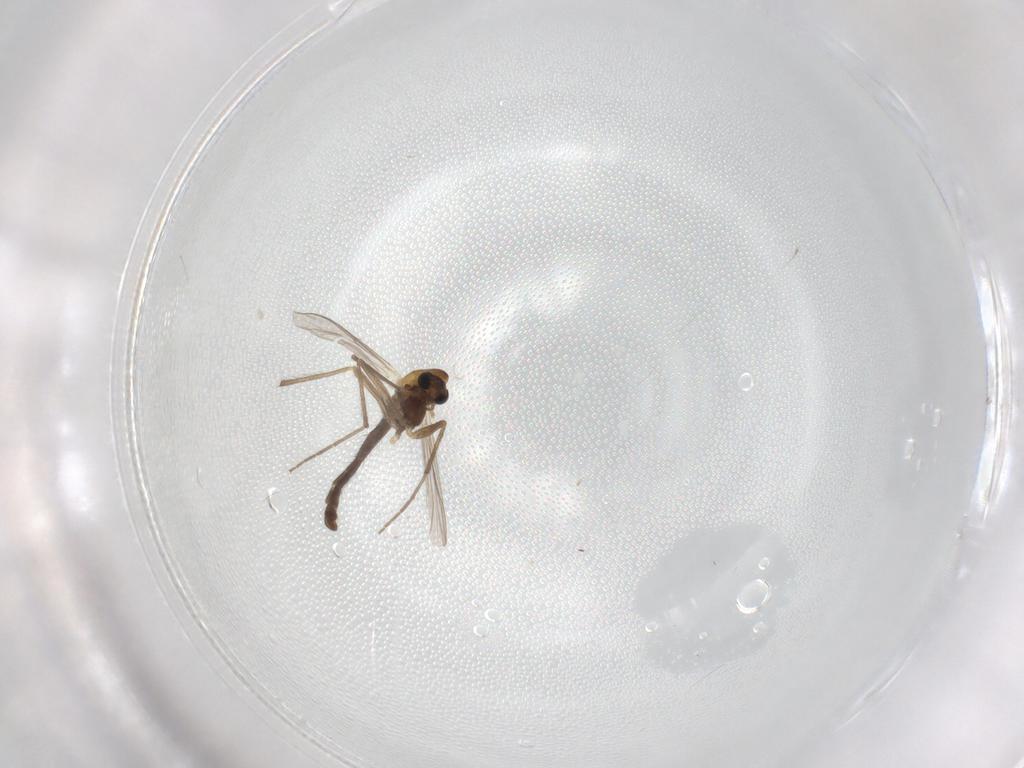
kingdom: Animalia
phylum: Arthropoda
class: Insecta
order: Diptera
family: Chironomidae
